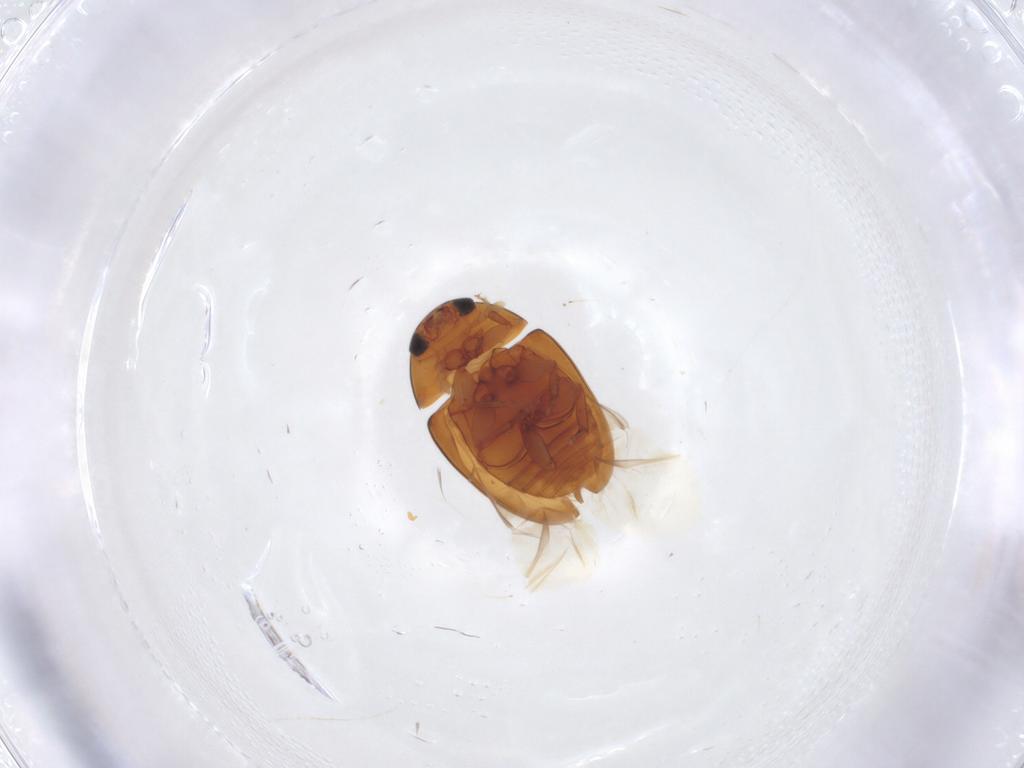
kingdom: Animalia
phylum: Arthropoda
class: Insecta
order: Coleoptera
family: Phalacridae
